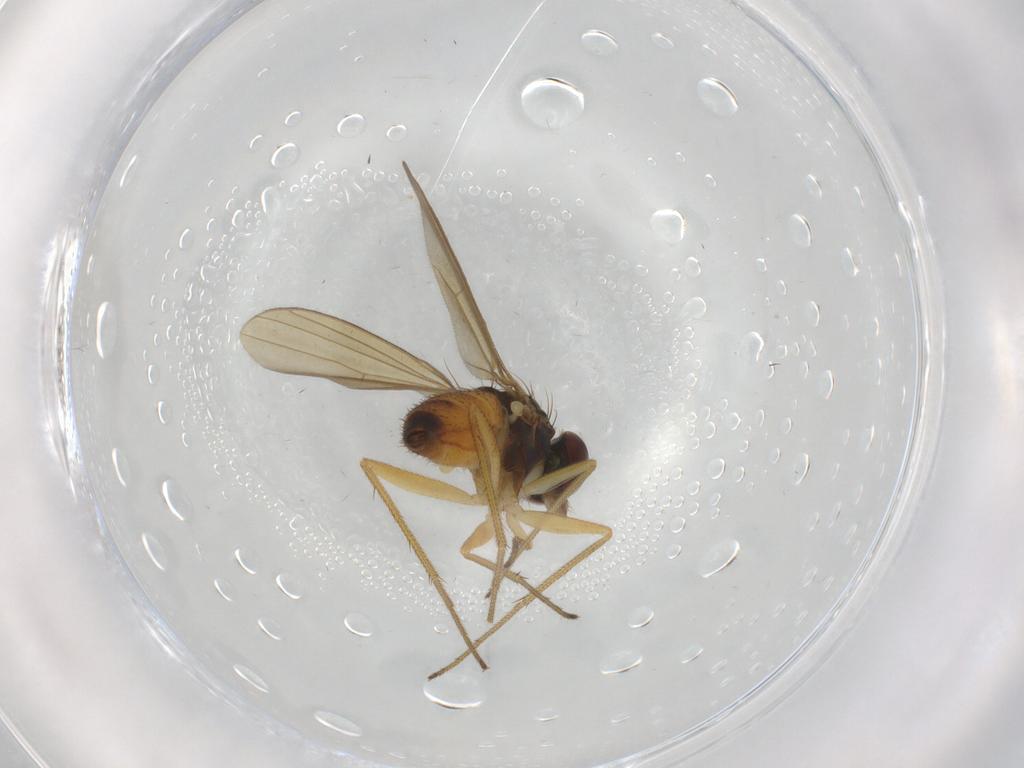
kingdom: Animalia
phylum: Arthropoda
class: Insecta
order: Diptera
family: Dolichopodidae
